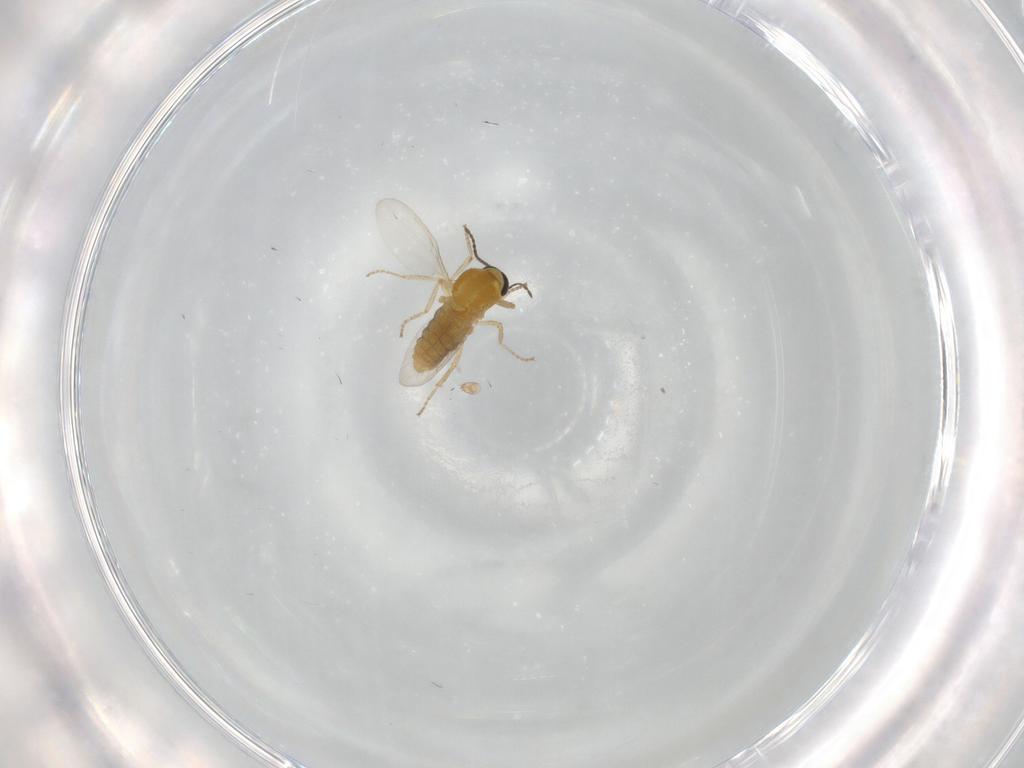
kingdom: Animalia
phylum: Arthropoda
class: Insecta
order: Diptera
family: Ceratopogonidae
